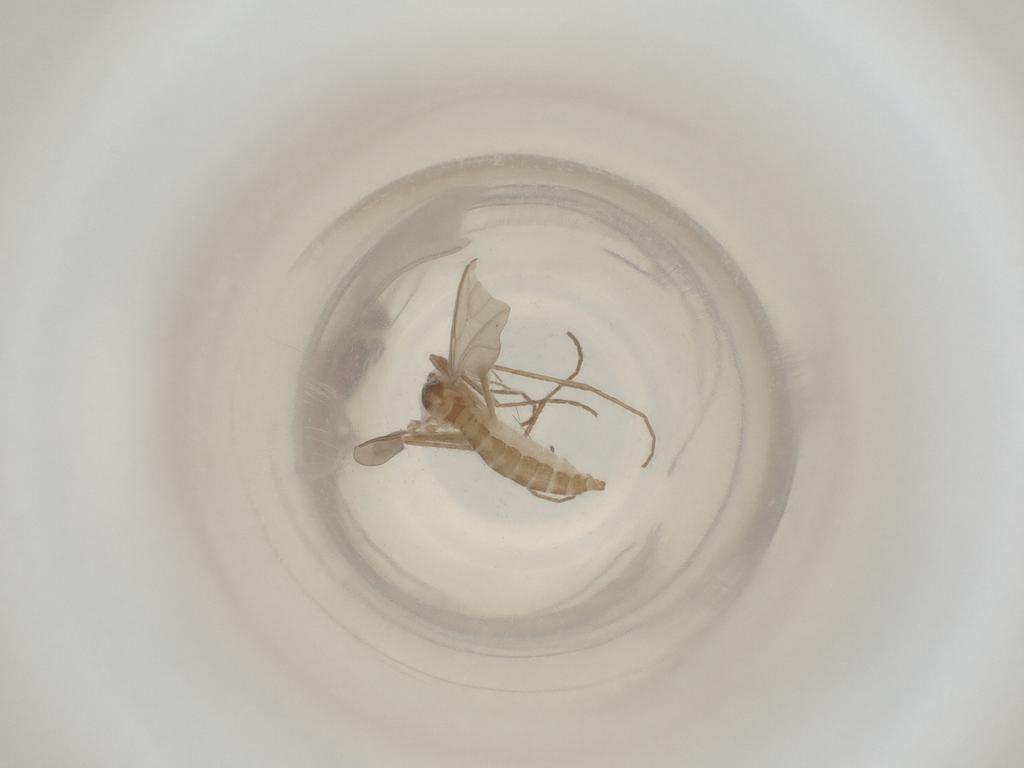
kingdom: Animalia
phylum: Arthropoda
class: Insecta
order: Diptera
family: Cecidomyiidae
